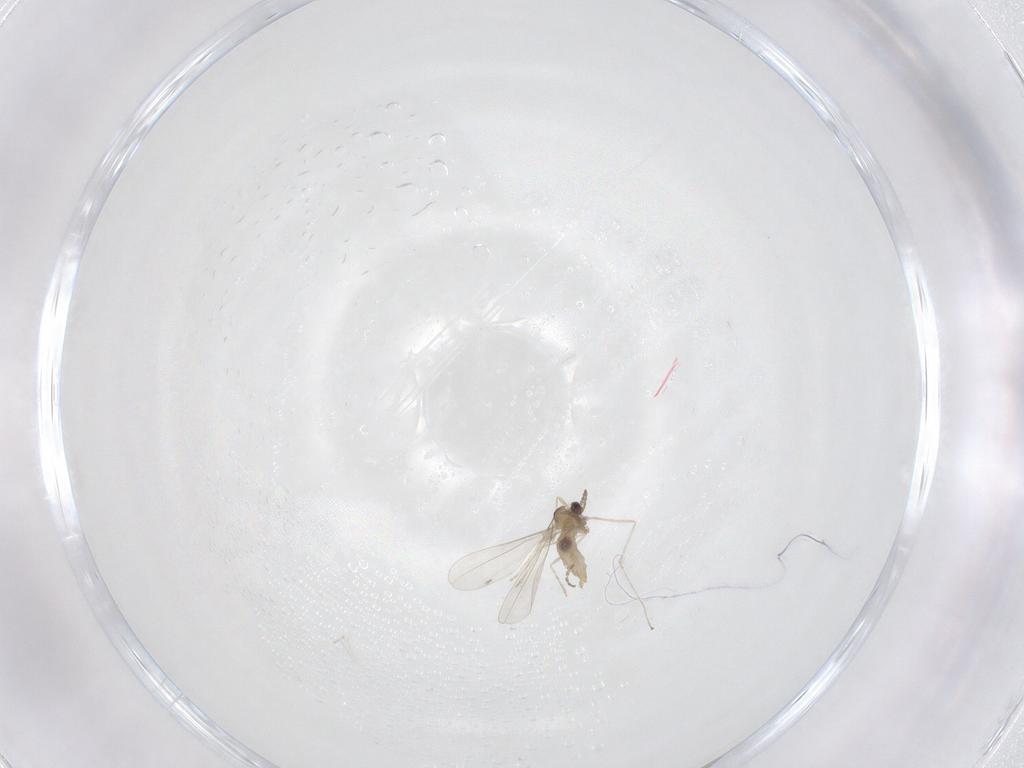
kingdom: Animalia
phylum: Arthropoda
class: Insecta
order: Diptera
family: Cecidomyiidae
